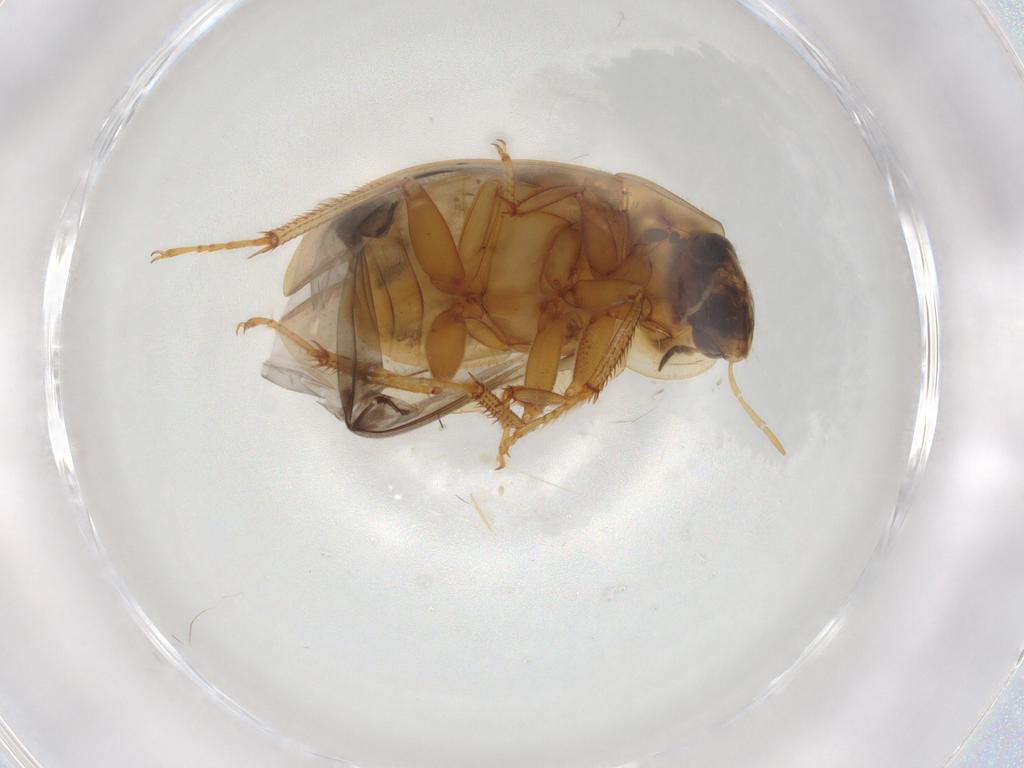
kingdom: Animalia
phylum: Arthropoda
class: Insecta
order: Coleoptera
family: Hydrophilidae
